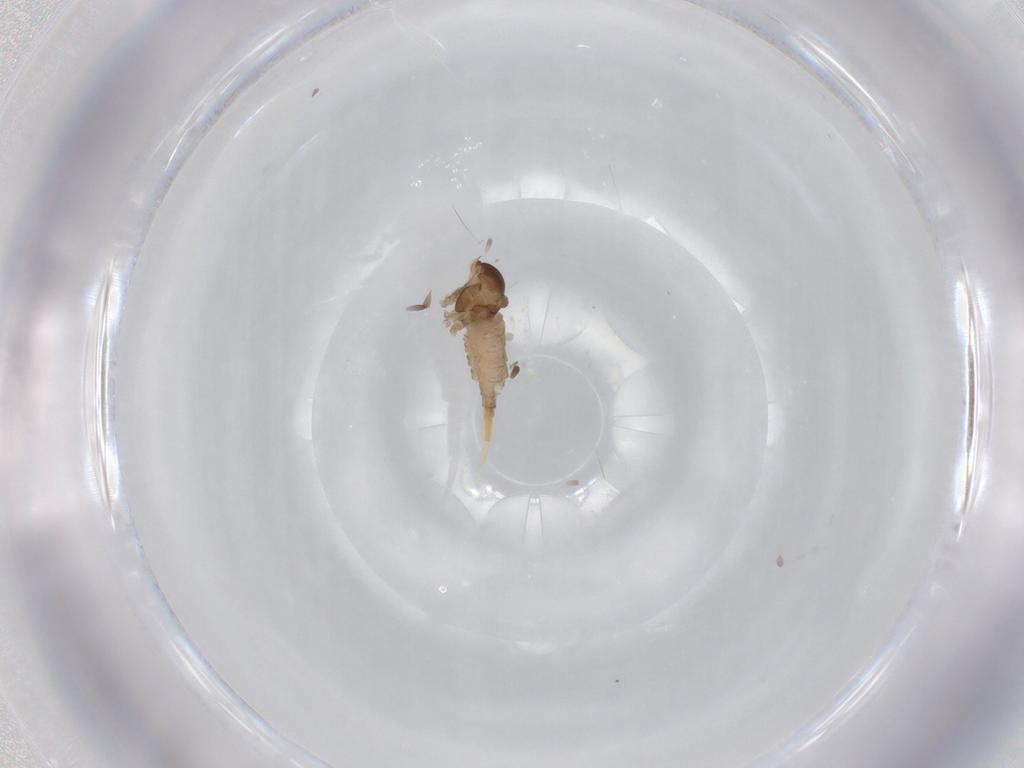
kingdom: Animalia
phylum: Arthropoda
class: Insecta
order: Diptera
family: Cecidomyiidae
